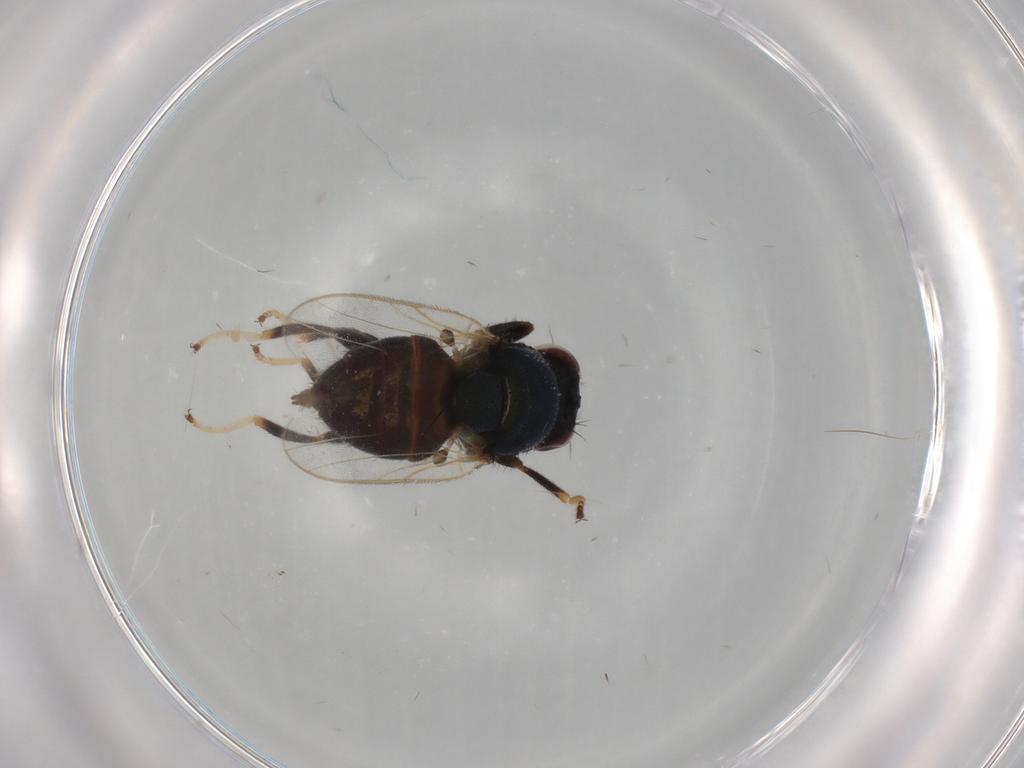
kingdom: Animalia
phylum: Arthropoda
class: Insecta
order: Diptera
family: Chloropidae
